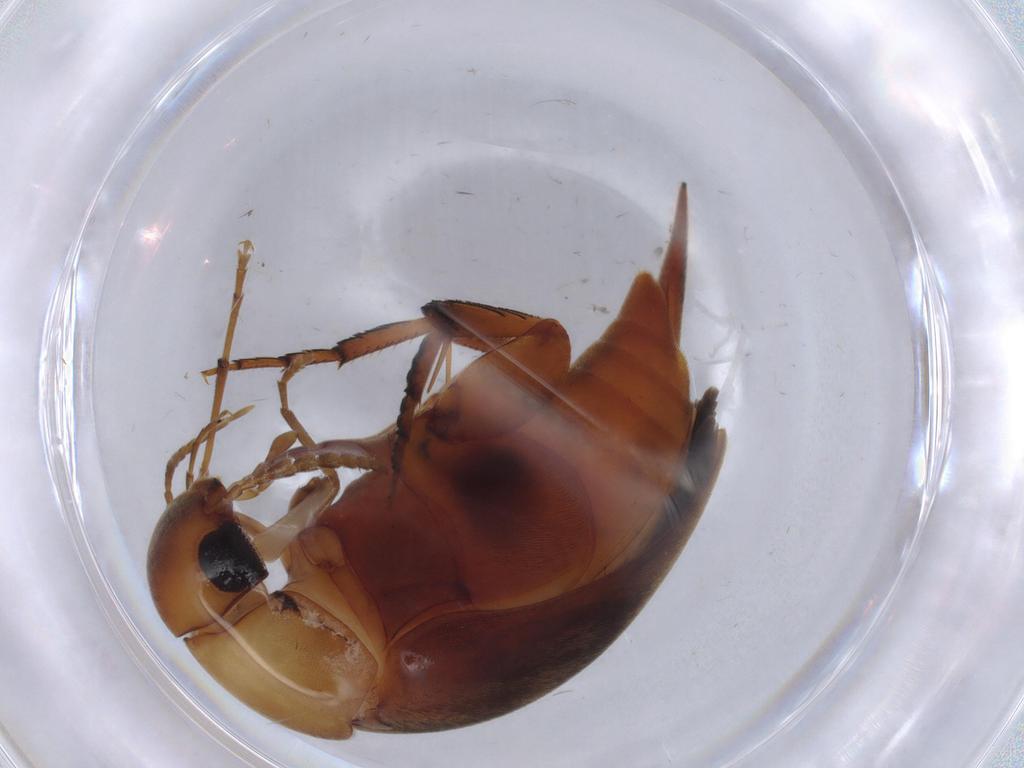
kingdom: Animalia
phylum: Arthropoda
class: Insecta
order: Coleoptera
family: Mordellidae
